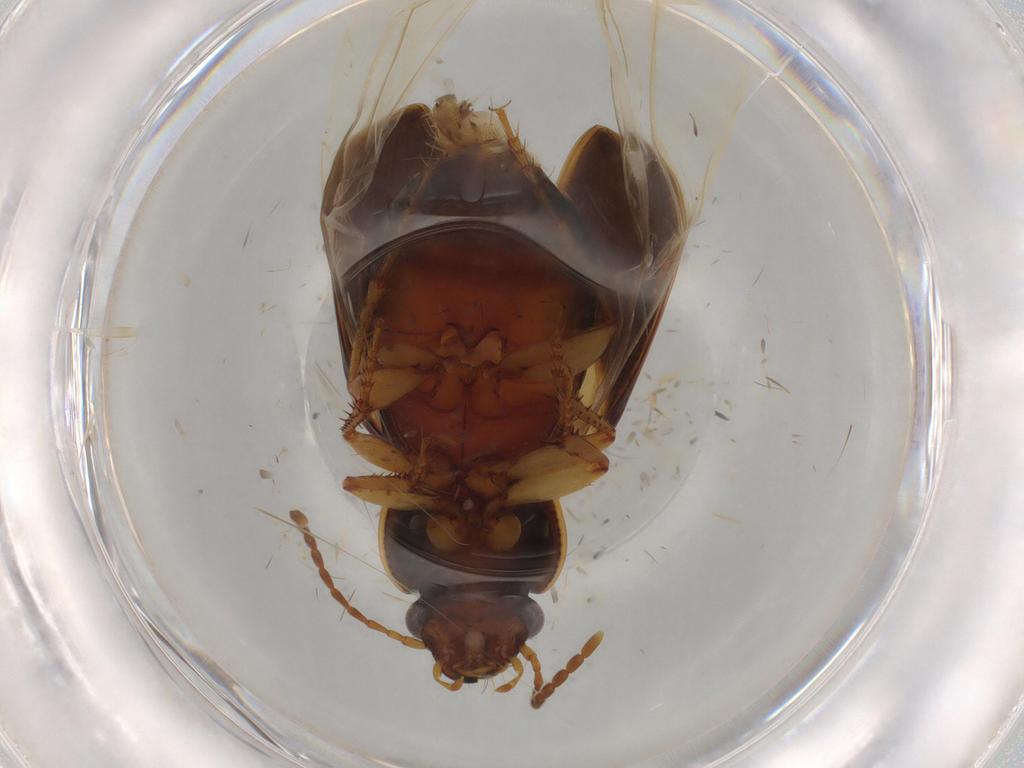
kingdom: Animalia
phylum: Arthropoda
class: Insecta
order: Coleoptera
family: Carabidae
